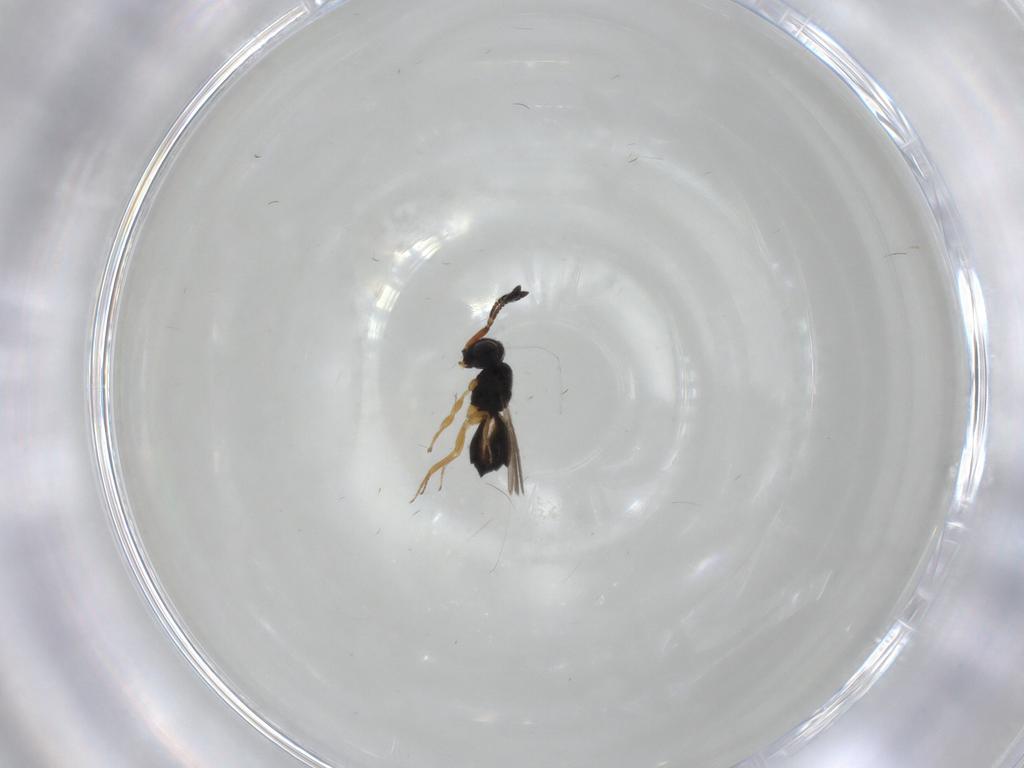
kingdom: Animalia
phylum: Arthropoda
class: Insecta
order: Hymenoptera
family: Scelionidae
